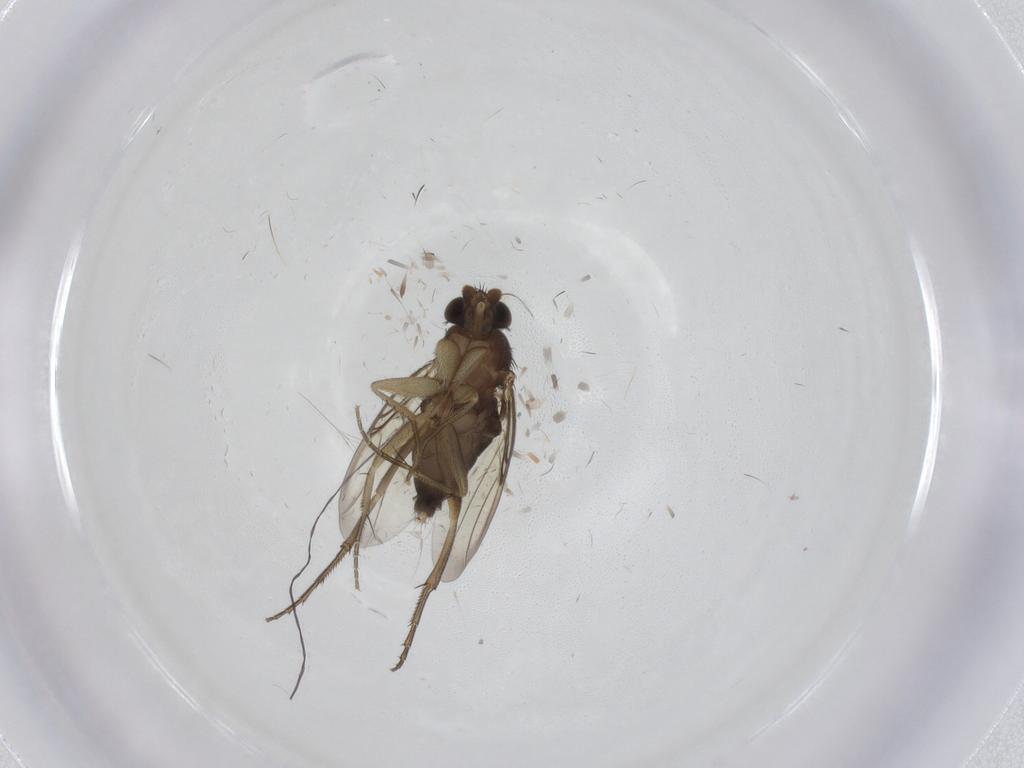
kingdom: Animalia
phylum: Arthropoda
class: Insecta
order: Diptera
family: Phoridae
